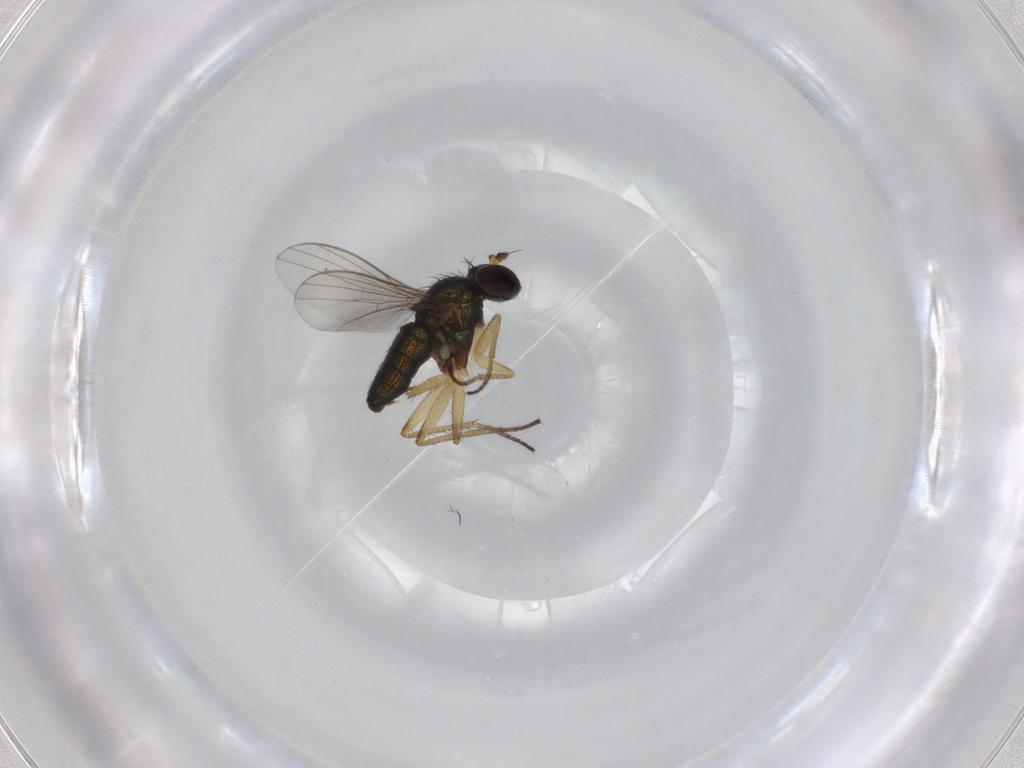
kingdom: Animalia
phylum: Arthropoda
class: Insecta
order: Diptera
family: Dolichopodidae
